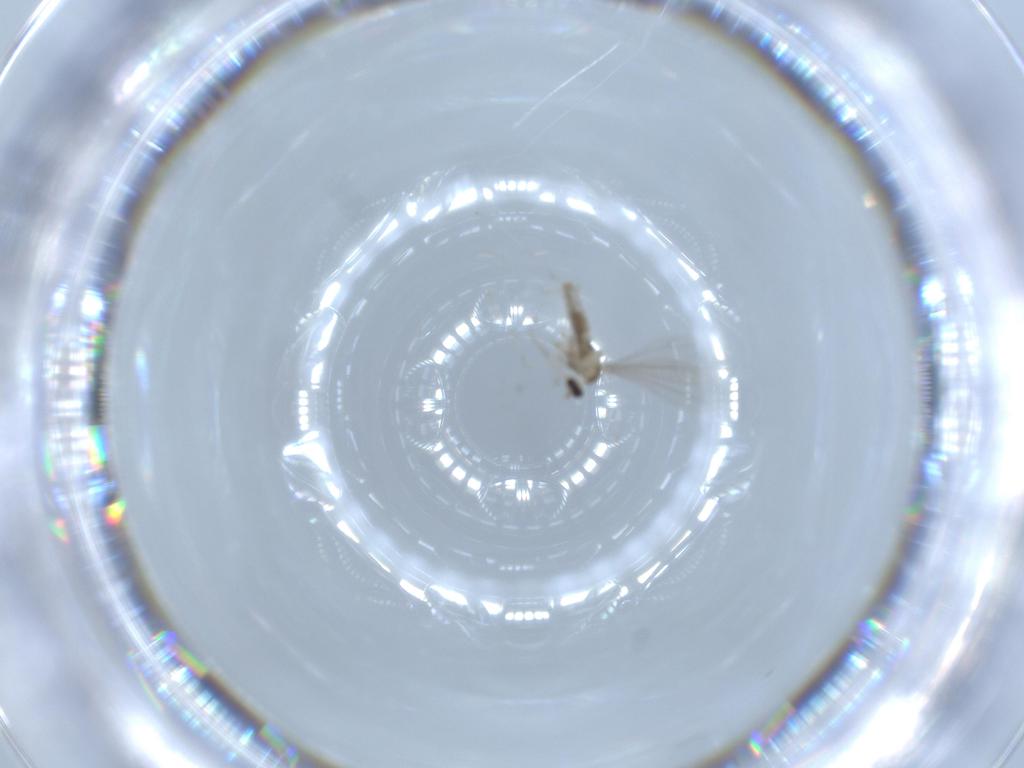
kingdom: Animalia
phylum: Arthropoda
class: Insecta
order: Diptera
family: Cecidomyiidae
